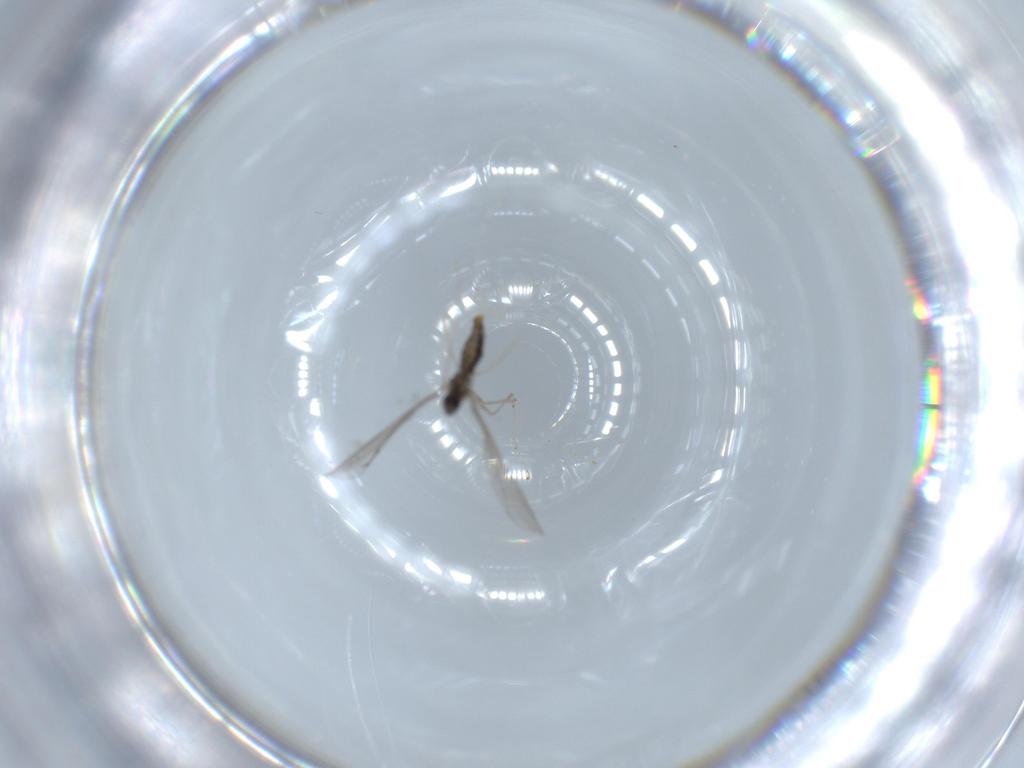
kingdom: Animalia
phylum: Arthropoda
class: Insecta
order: Diptera
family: Cecidomyiidae
